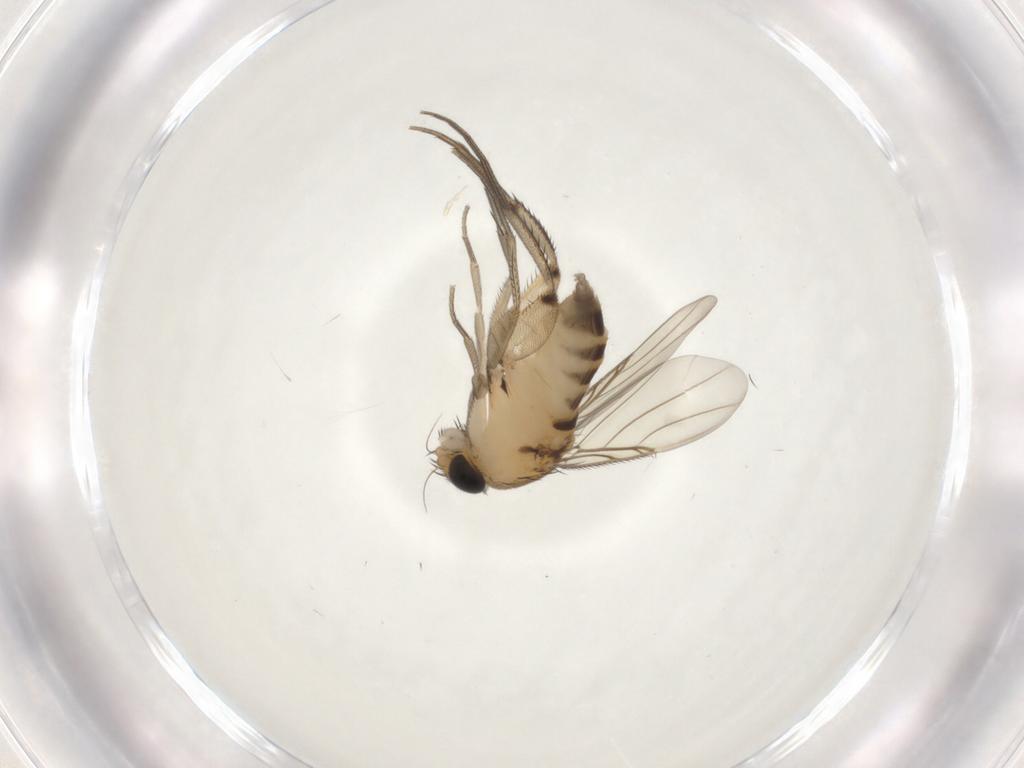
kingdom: Animalia
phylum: Arthropoda
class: Insecta
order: Diptera
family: Phoridae
